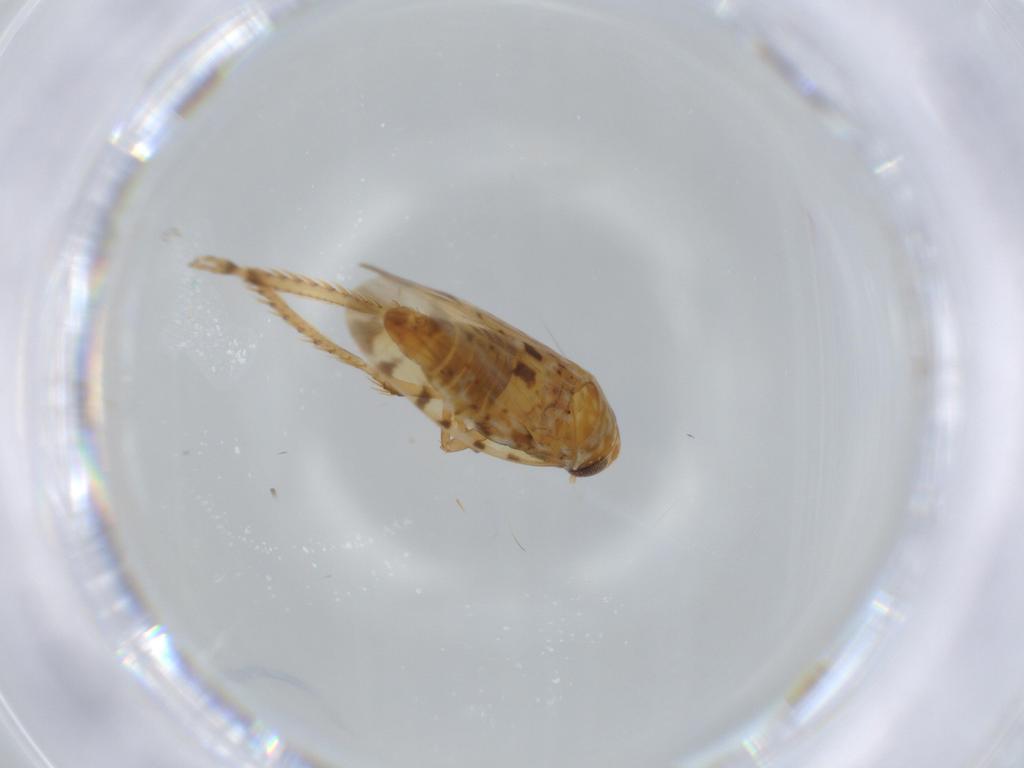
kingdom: Animalia
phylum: Arthropoda
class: Insecta
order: Hemiptera
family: Cicadellidae
